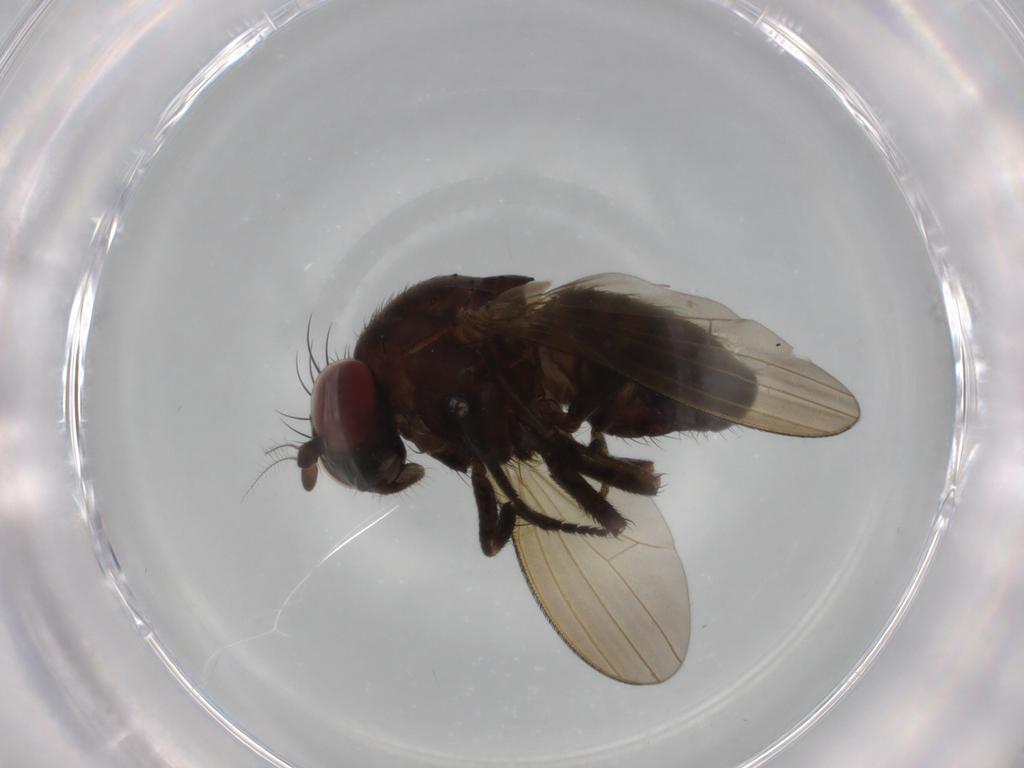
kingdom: Animalia
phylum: Arthropoda
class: Insecta
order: Diptera
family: Lauxaniidae
